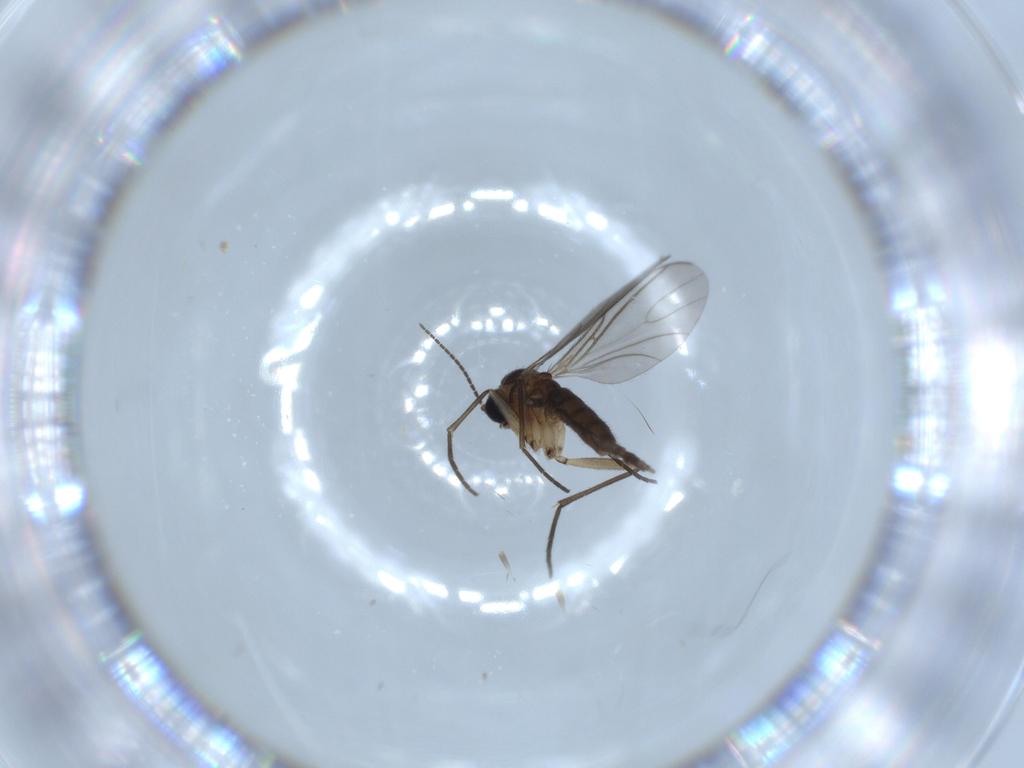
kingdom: Animalia
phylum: Arthropoda
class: Insecta
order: Diptera
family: Sciaridae
